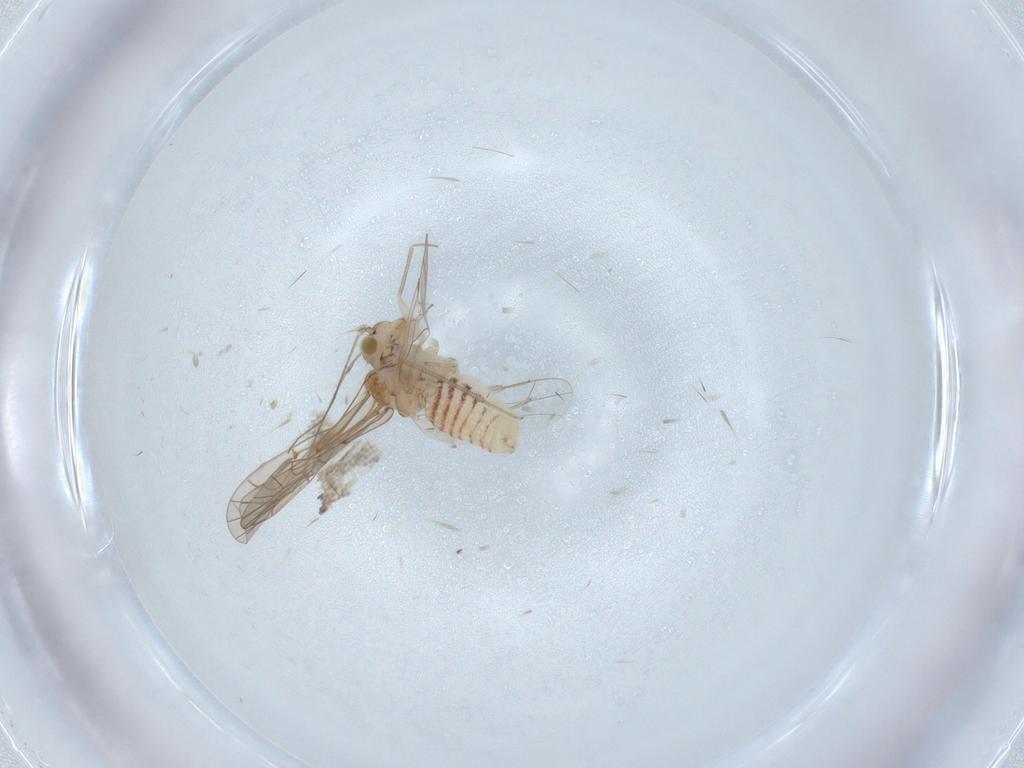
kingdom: Animalia
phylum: Arthropoda
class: Insecta
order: Psocodea
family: Lachesillidae
